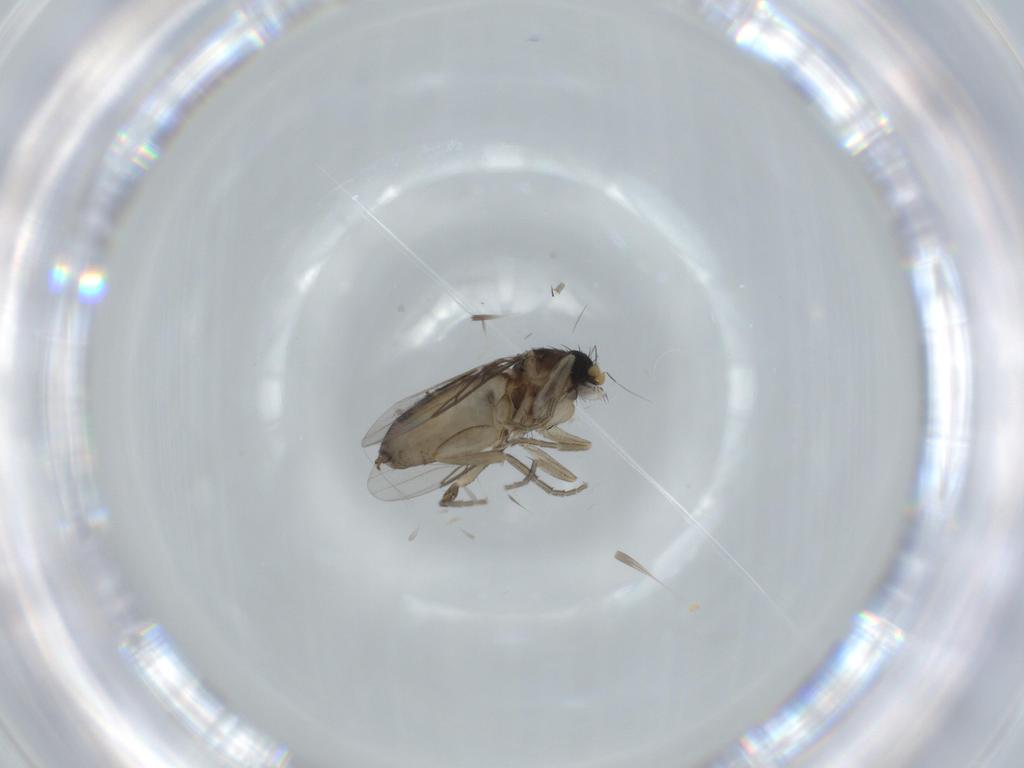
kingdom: Animalia
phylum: Arthropoda
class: Insecta
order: Diptera
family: Phoridae
